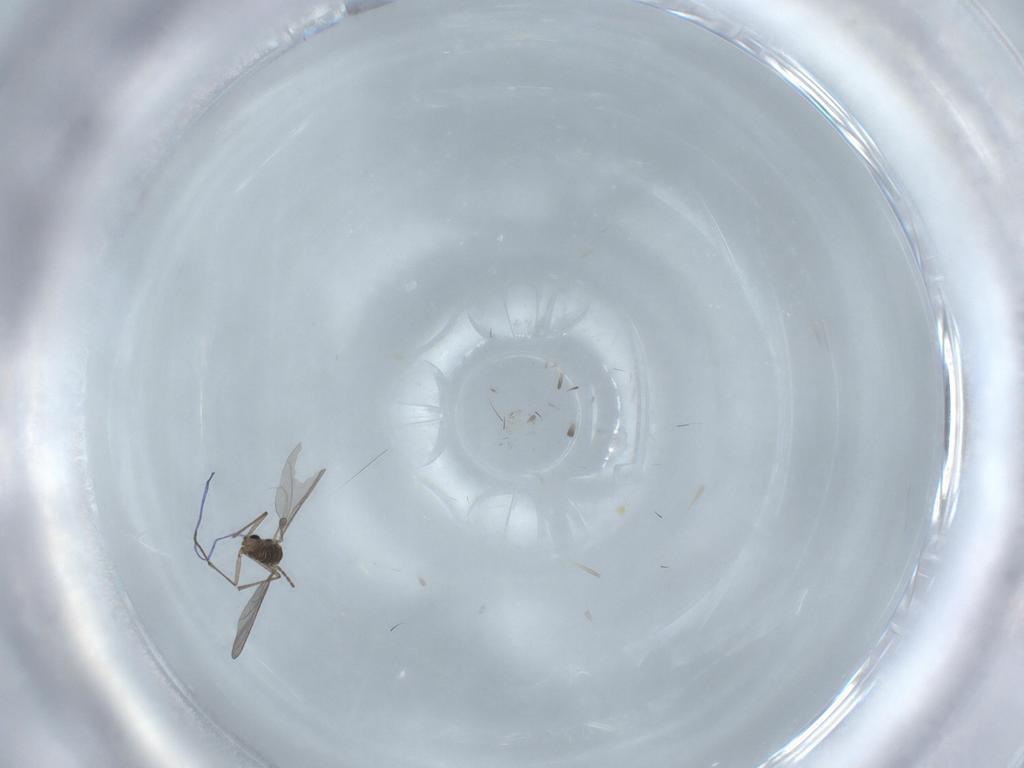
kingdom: Animalia
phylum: Arthropoda
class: Insecta
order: Diptera
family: Sciaridae
